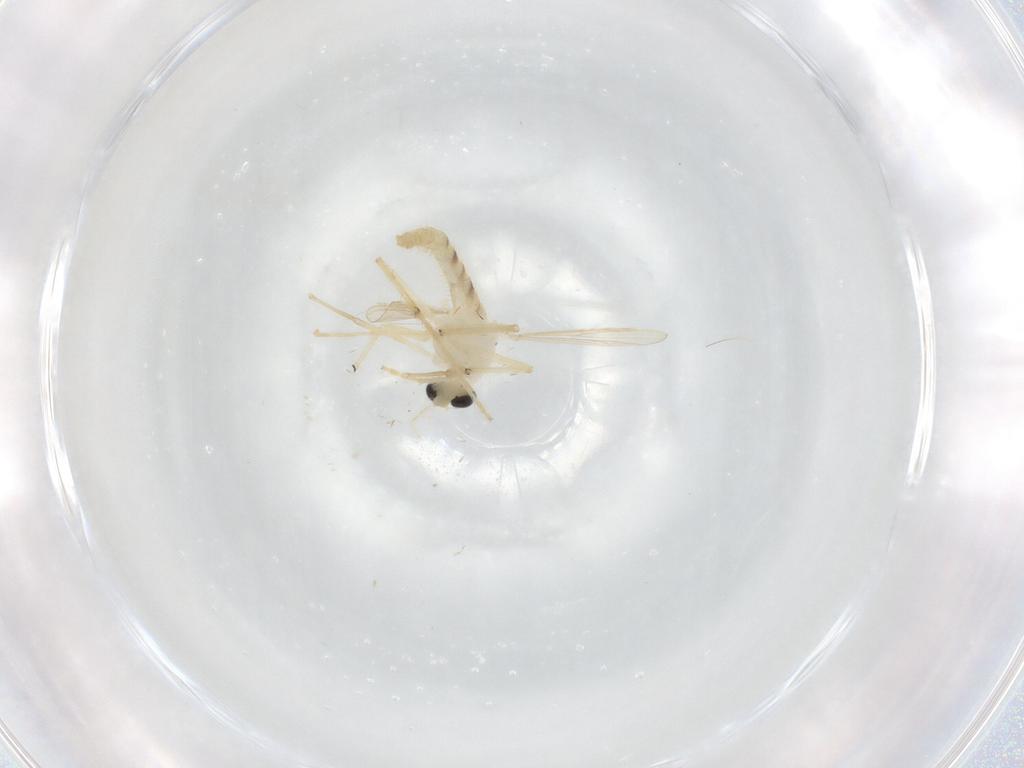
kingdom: Animalia
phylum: Arthropoda
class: Insecta
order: Diptera
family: Chironomidae
